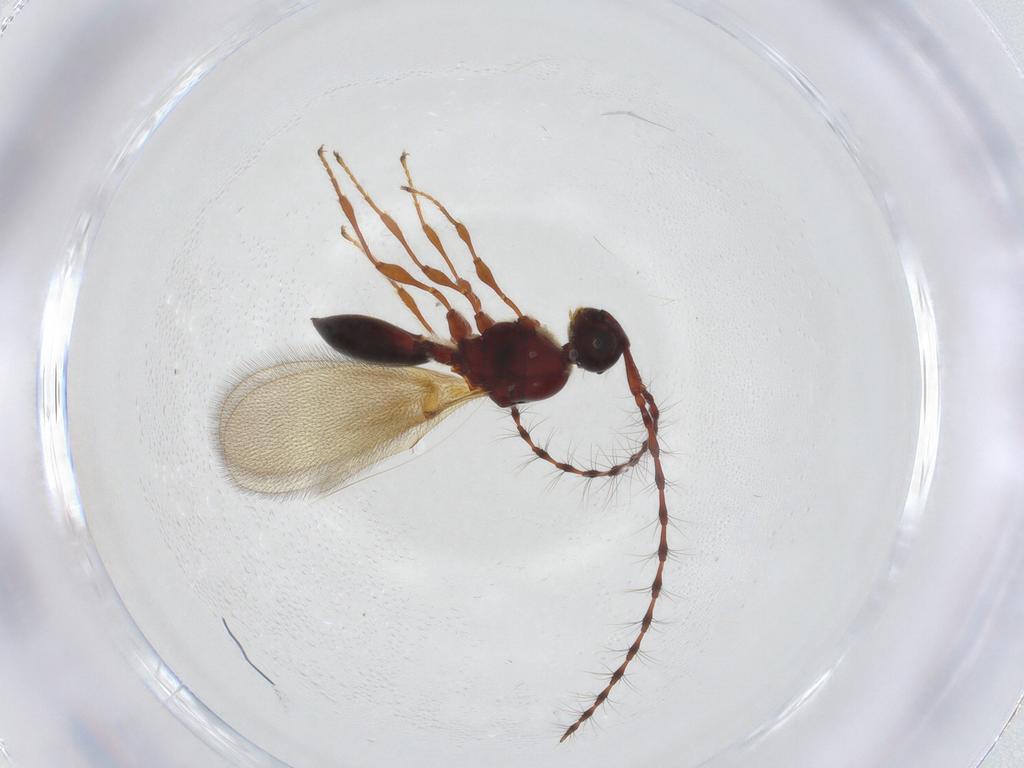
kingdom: Animalia
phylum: Arthropoda
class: Insecta
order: Hymenoptera
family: Diapriidae
